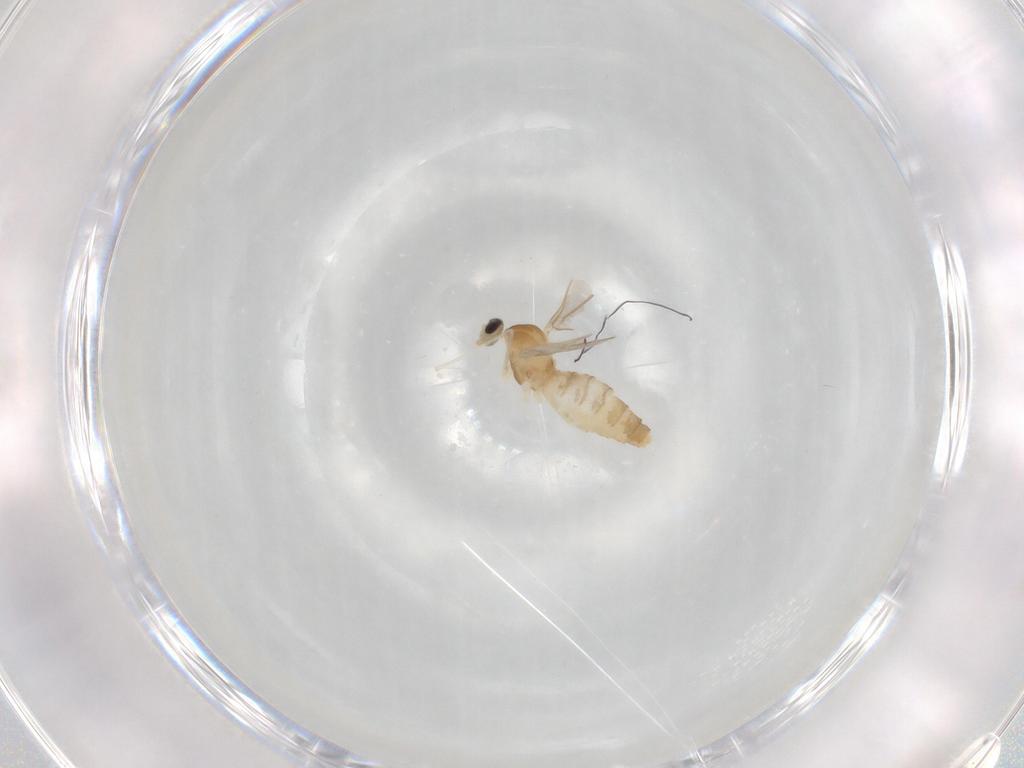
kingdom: Animalia
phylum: Arthropoda
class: Insecta
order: Diptera
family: Cecidomyiidae
